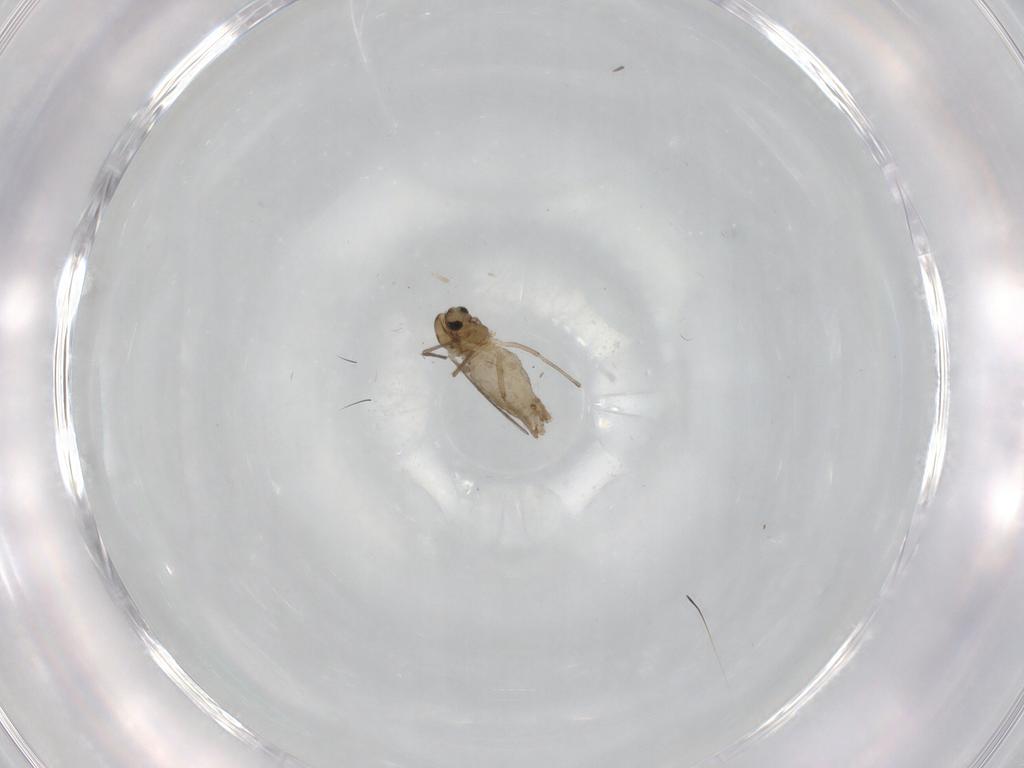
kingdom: Animalia
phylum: Arthropoda
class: Insecta
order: Diptera
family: Chironomidae
